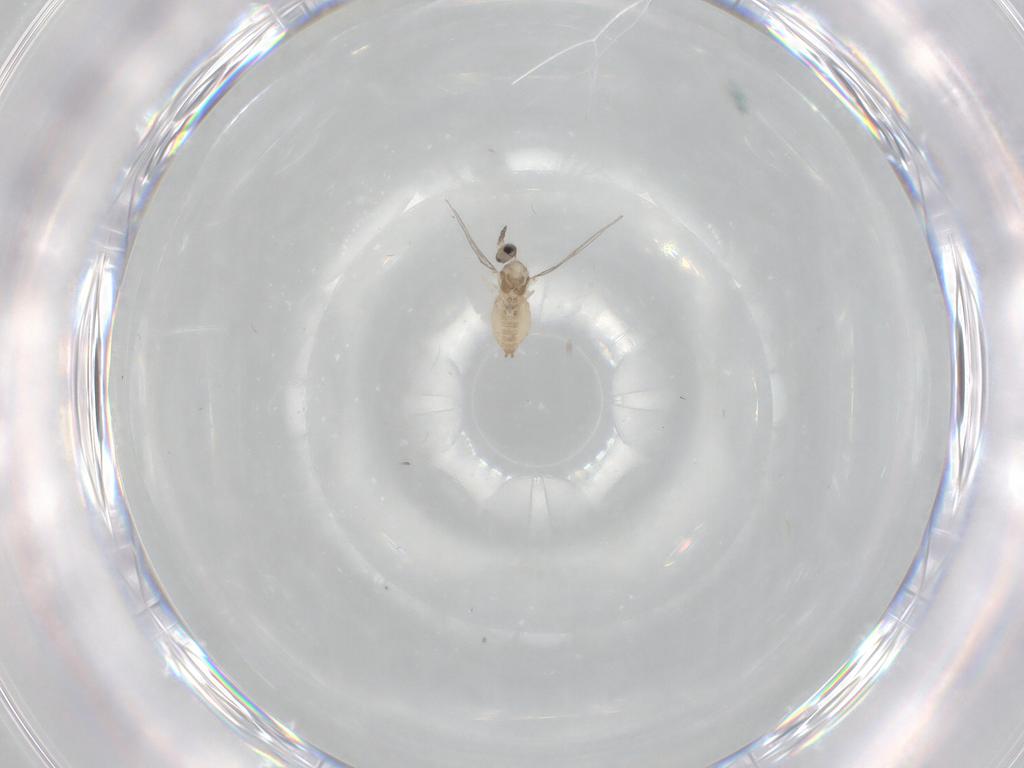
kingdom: Animalia
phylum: Arthropoda
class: Insecta
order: Diptera
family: Cecidomyiidae
